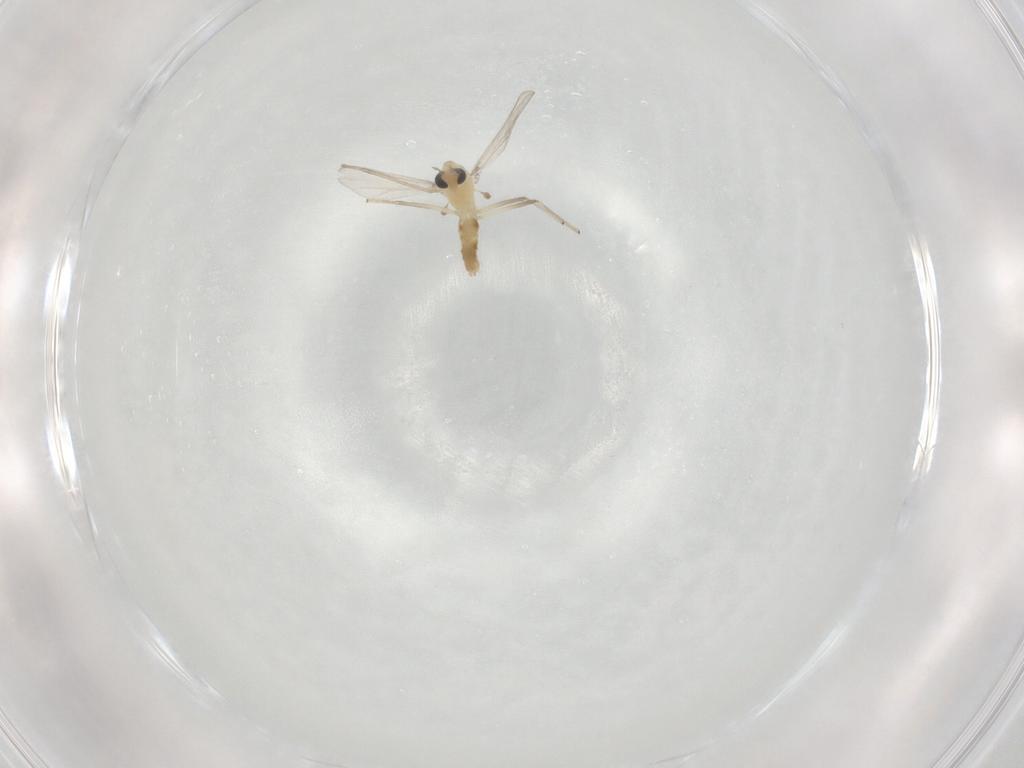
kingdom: Animalia
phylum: Arthropoda
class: Insecta
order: Diptera
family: Chironomidae
